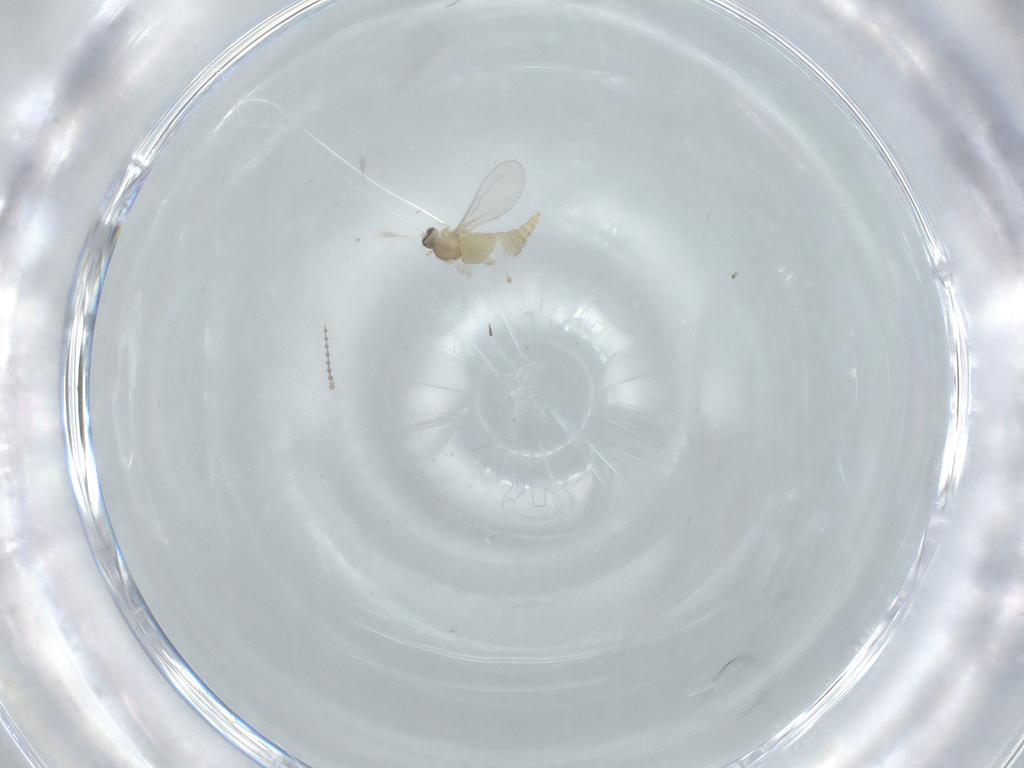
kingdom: Animalia
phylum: Arthropoda
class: Insecta
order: Diptera
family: Cecidomyiidae
